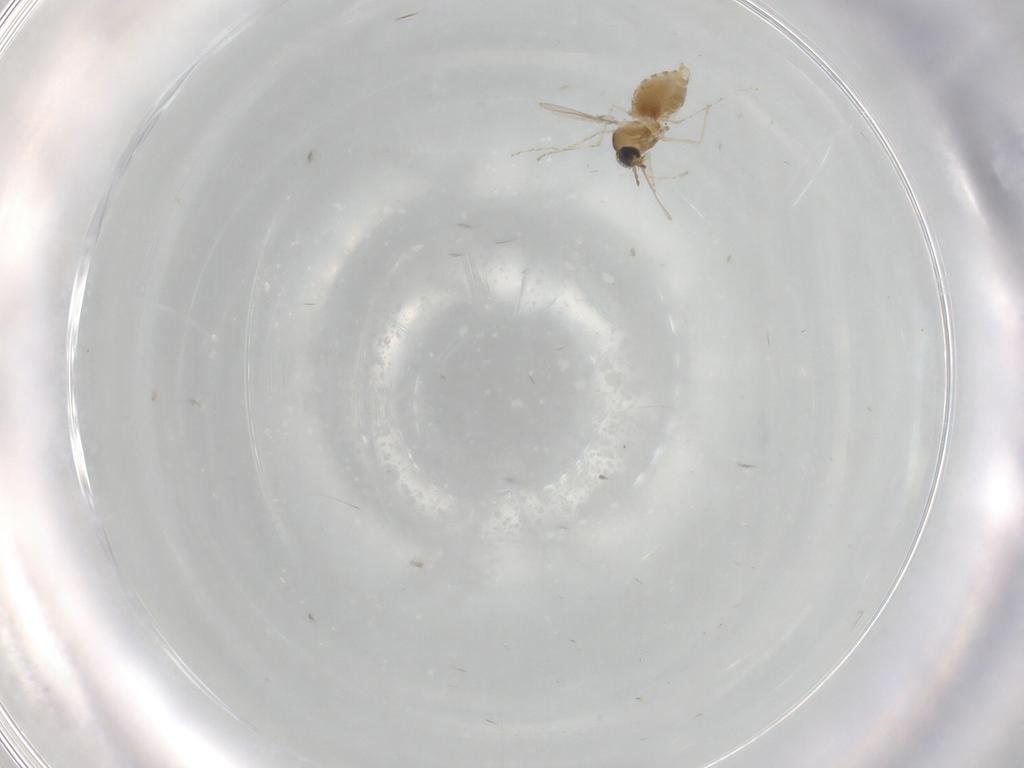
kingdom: Animalia
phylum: Arthropoda
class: Insecta
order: Diptera
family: Cecidomyiidae
